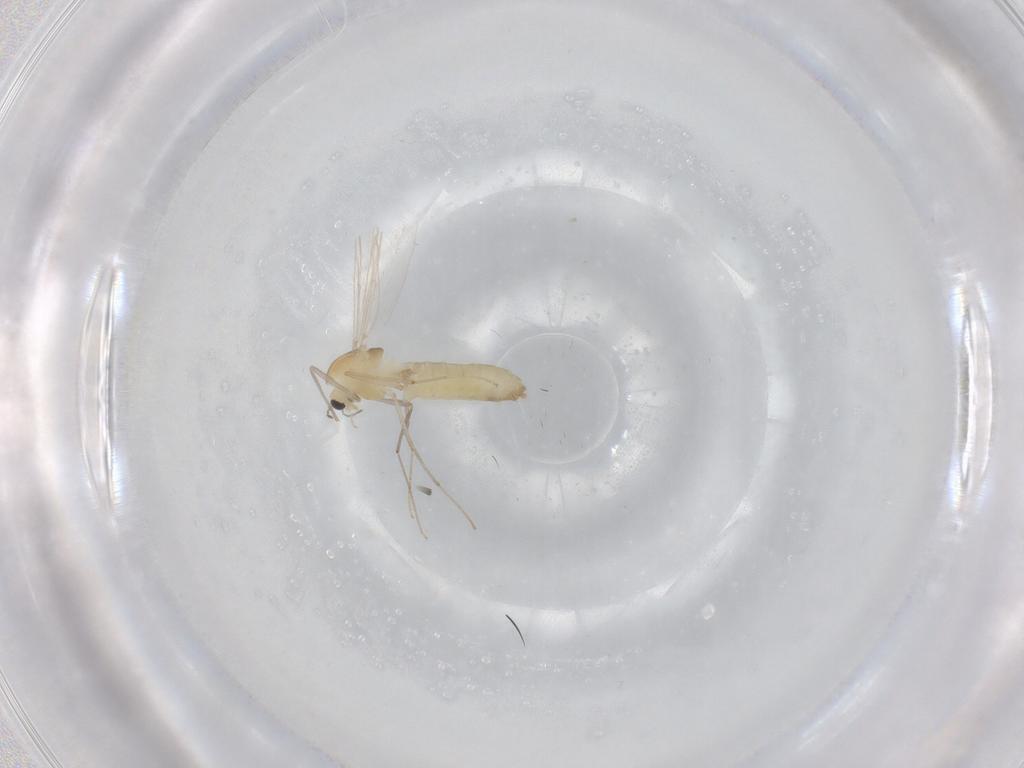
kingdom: Animalia
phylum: Arthropoda
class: Insecta
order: Diptera
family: Chironomidae
